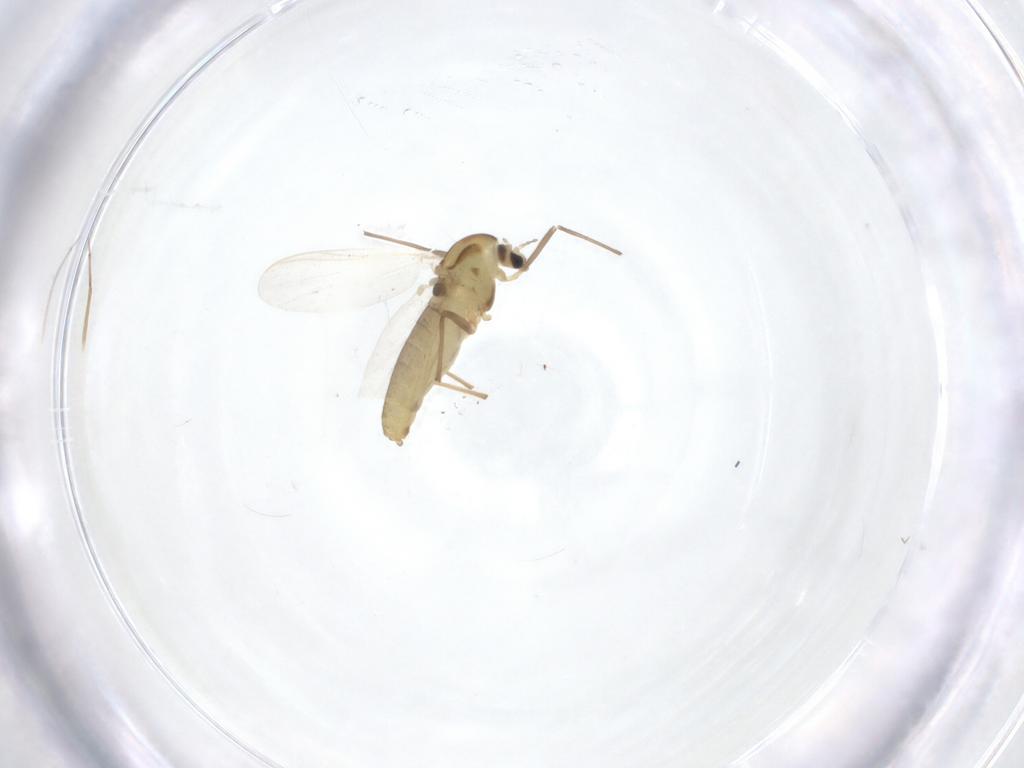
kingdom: Animalia
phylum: Arthropoda
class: Insecta
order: Diptera
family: Chironomidae
